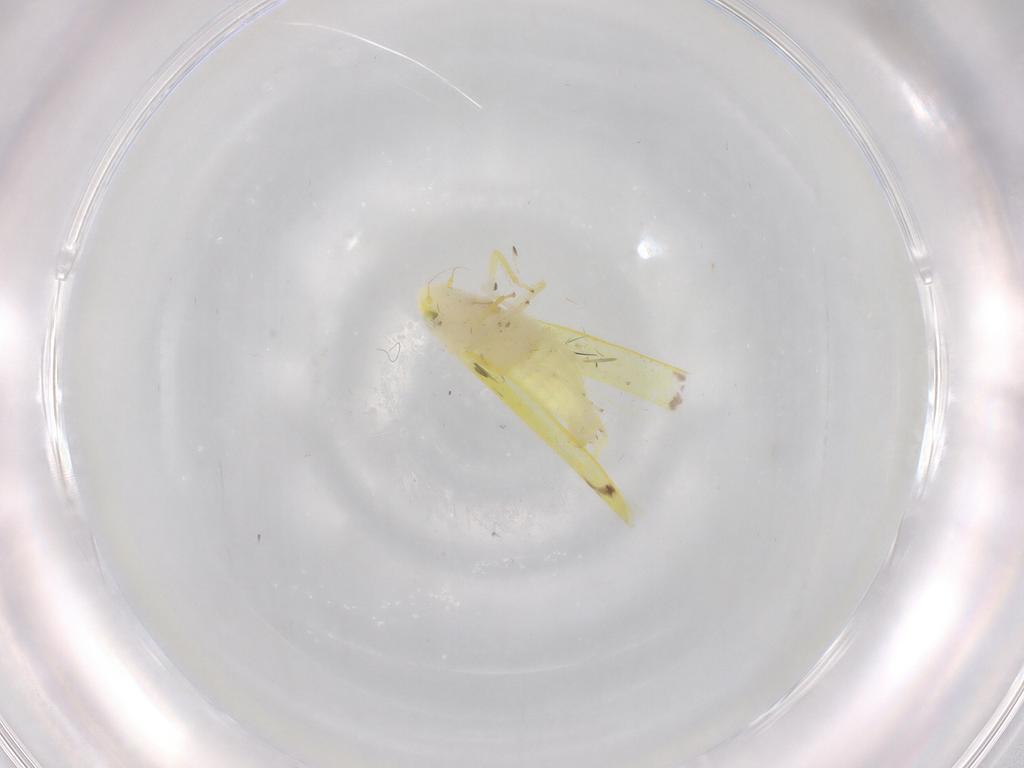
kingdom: Animalia
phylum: Arthropoda
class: Insecta
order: Hemiptera
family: Cicadellidae
